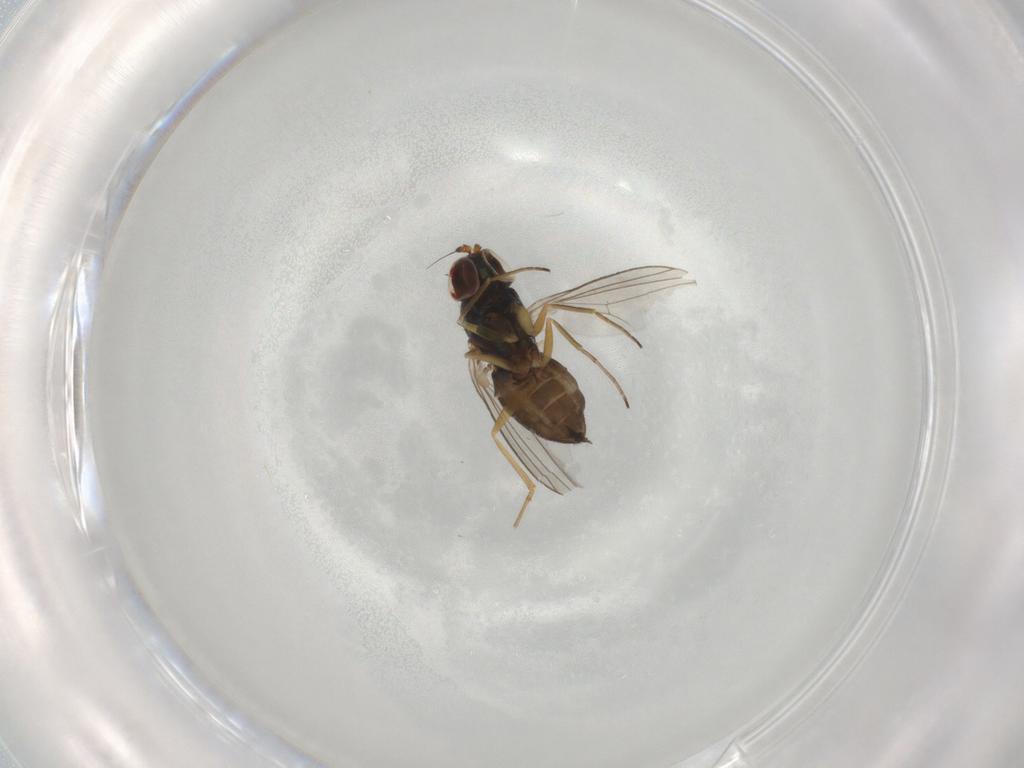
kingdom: Animalia
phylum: Arthropoda
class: Insecta
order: Diptera
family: Dolichopodidae
